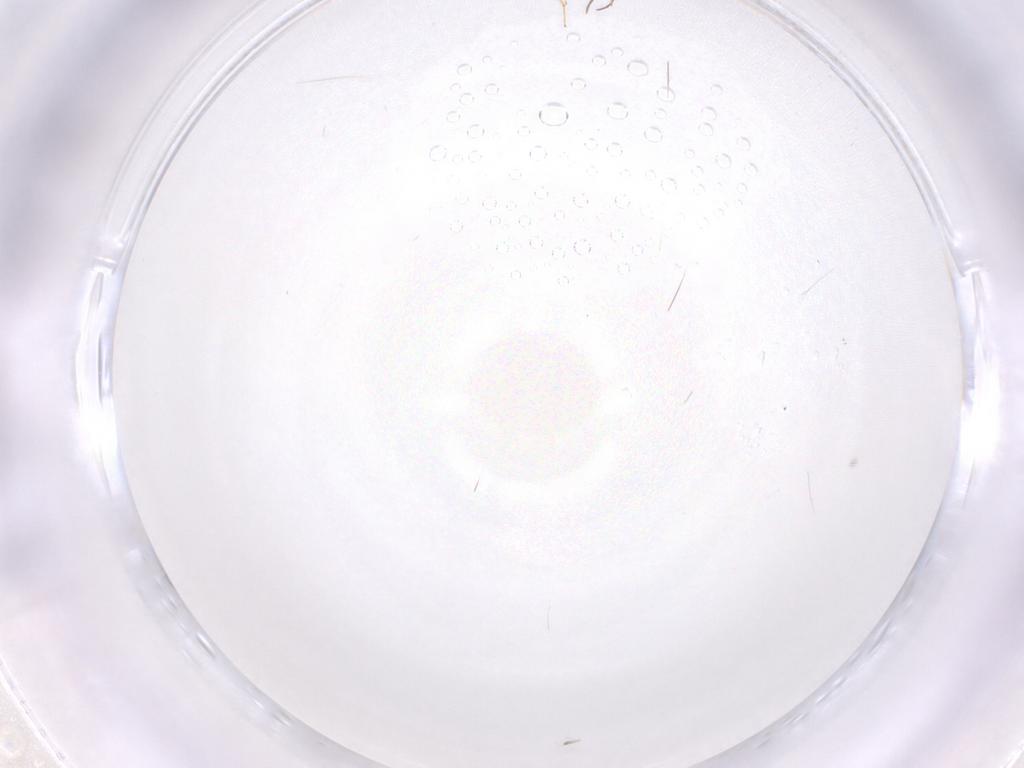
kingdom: Animalia
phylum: Arthropoda
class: Insecta
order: Blattodea
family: Ectobiidae
